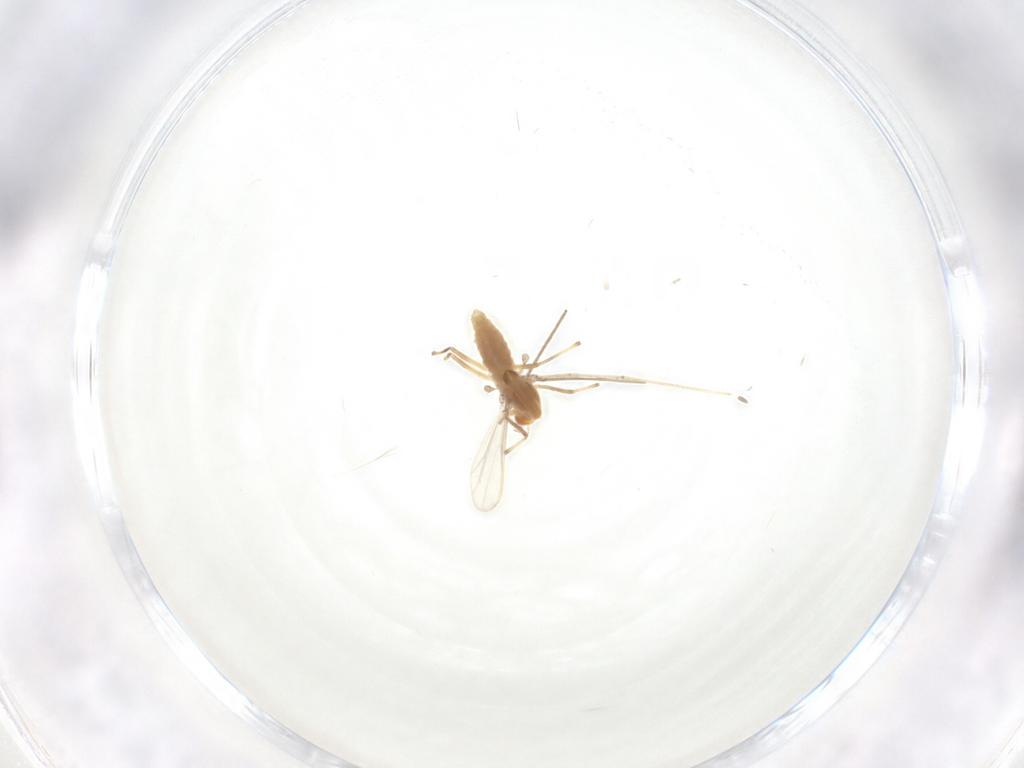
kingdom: Animalia
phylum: Arthropoda
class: Insecta
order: Diptera
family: Chironomidae
